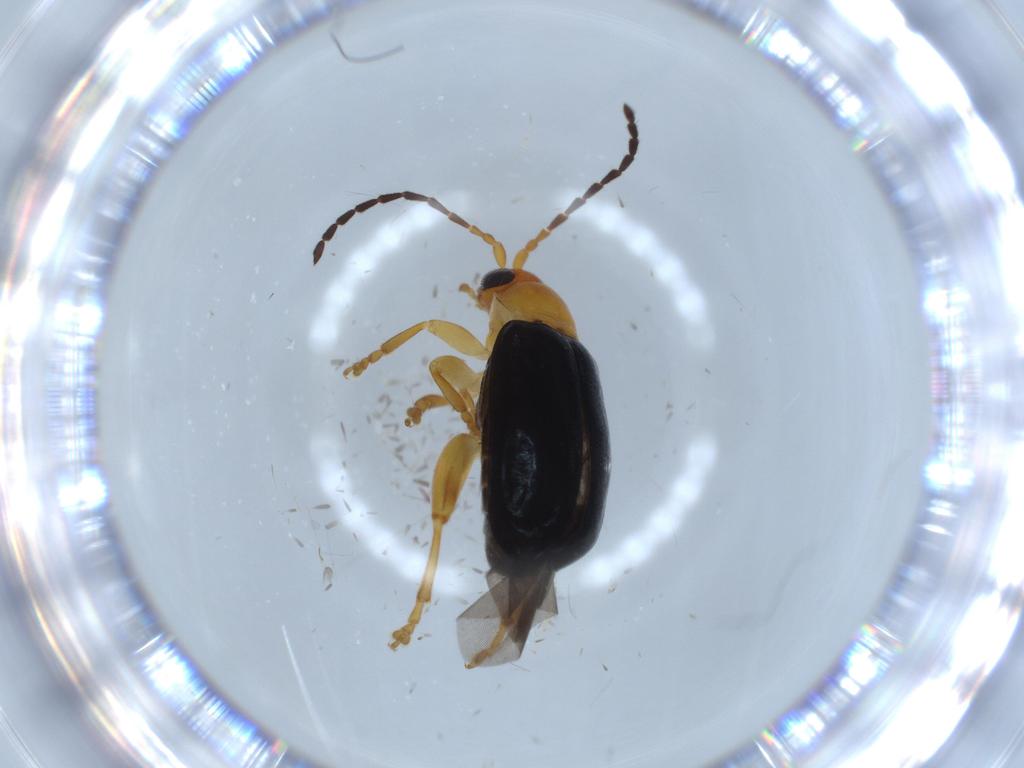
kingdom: Animalia
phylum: Arthropoda
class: Insecta
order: Coleoptera
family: Chrysomelidae
